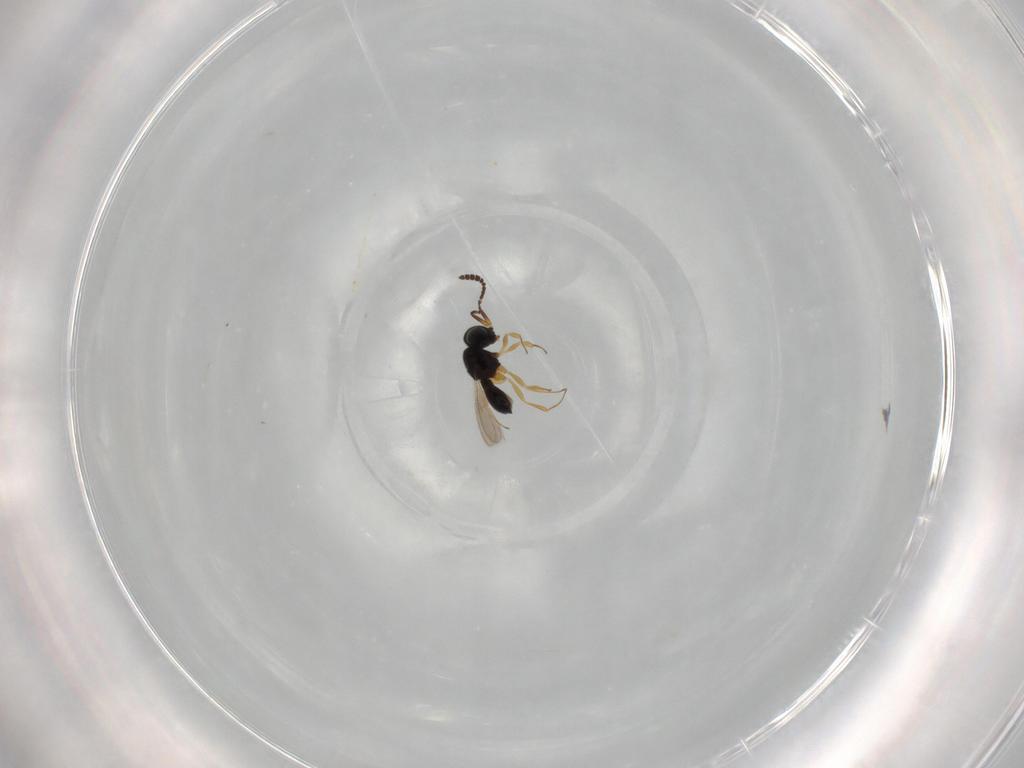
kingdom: Animalia
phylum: Arthropoda
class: Insecta
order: Hymenoptera
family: Scelionidae
